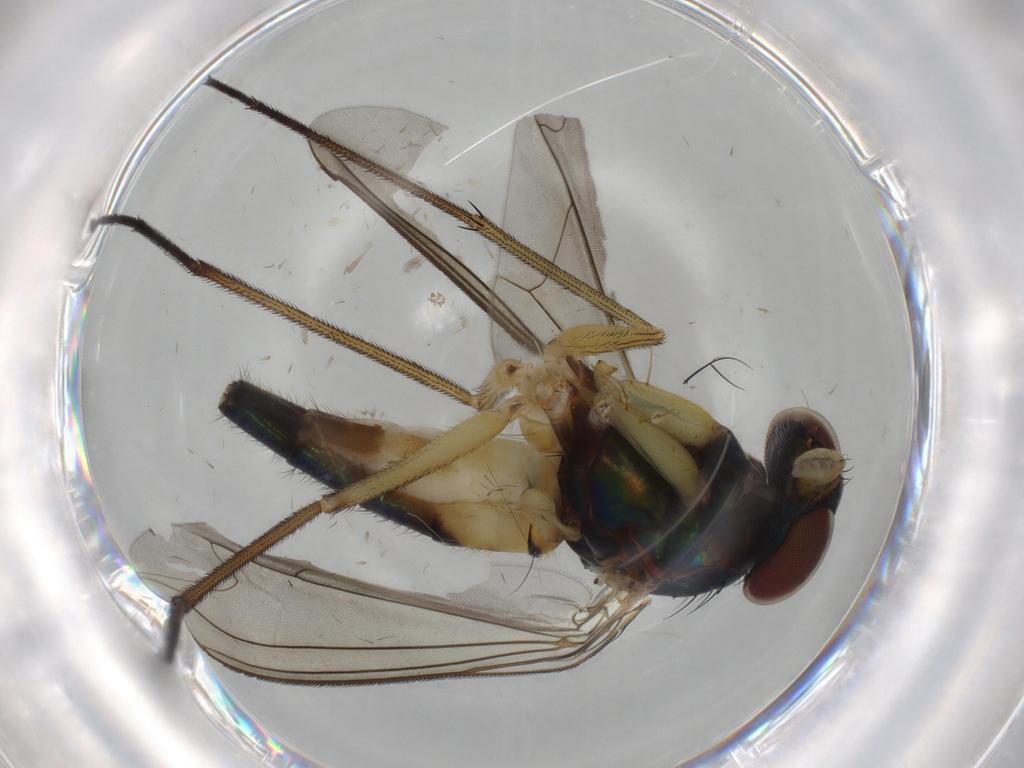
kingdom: Animalia
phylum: Arthropoda
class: Insecta
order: Diptera
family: Dolichopodidae
